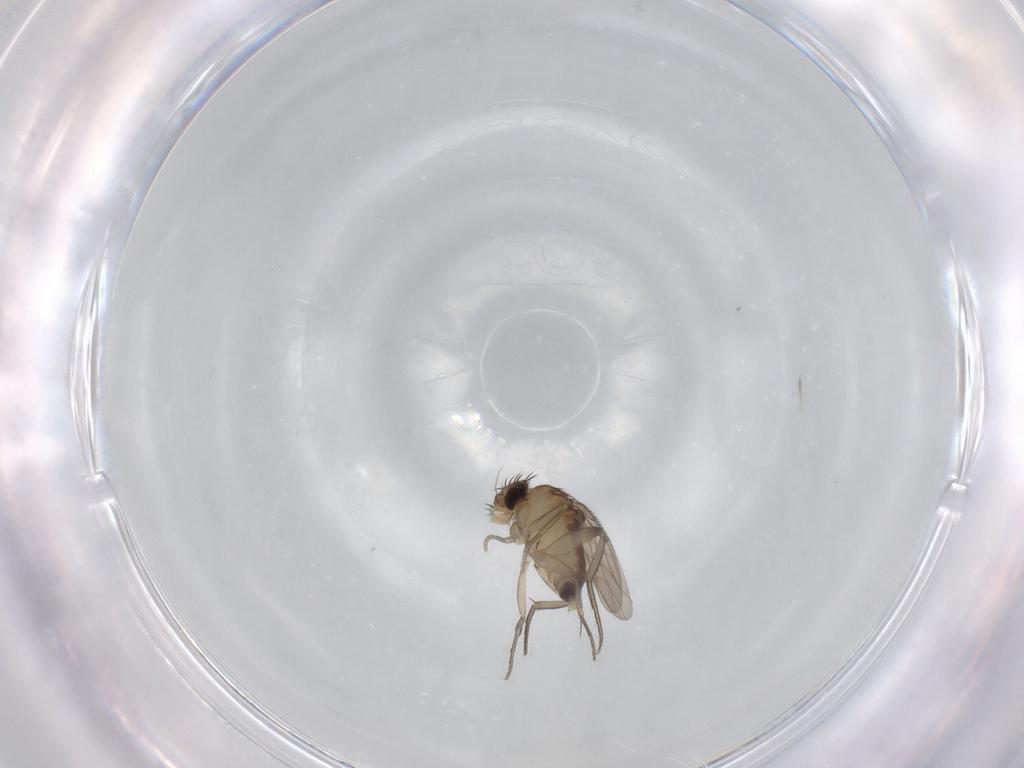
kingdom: Animalia
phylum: Arthropoda
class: Insecta
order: Diptera
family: Phoridae
